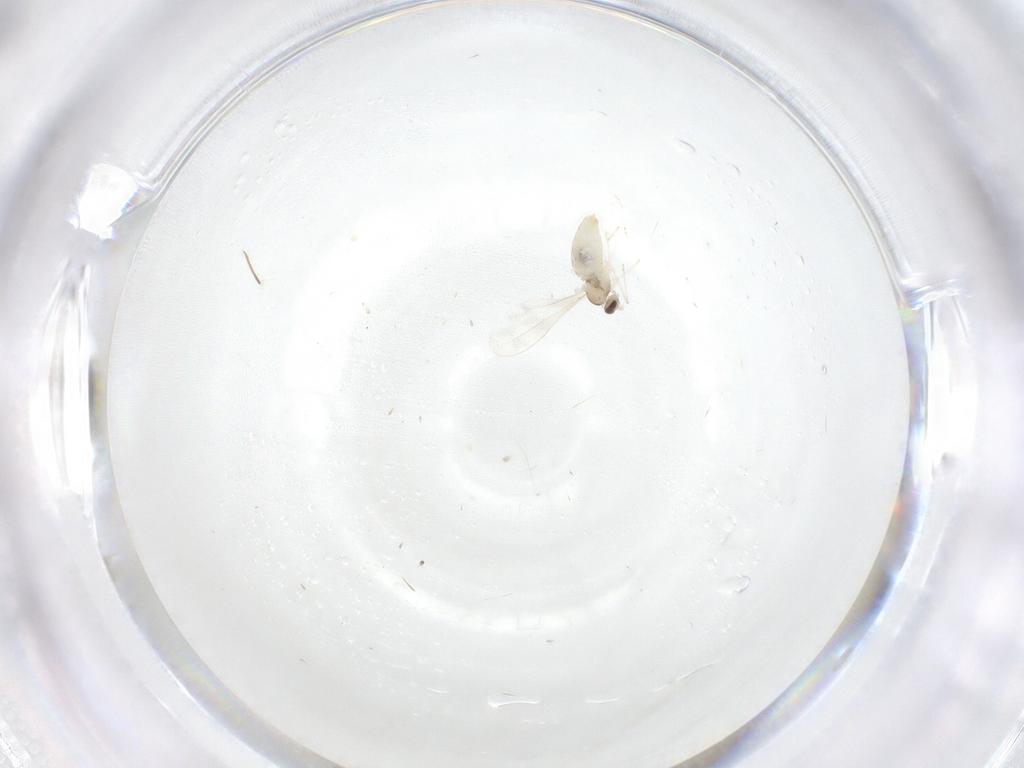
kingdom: Animalia
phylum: Arthropoda
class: Insecta
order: Diptera
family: Cecidomyiidae
